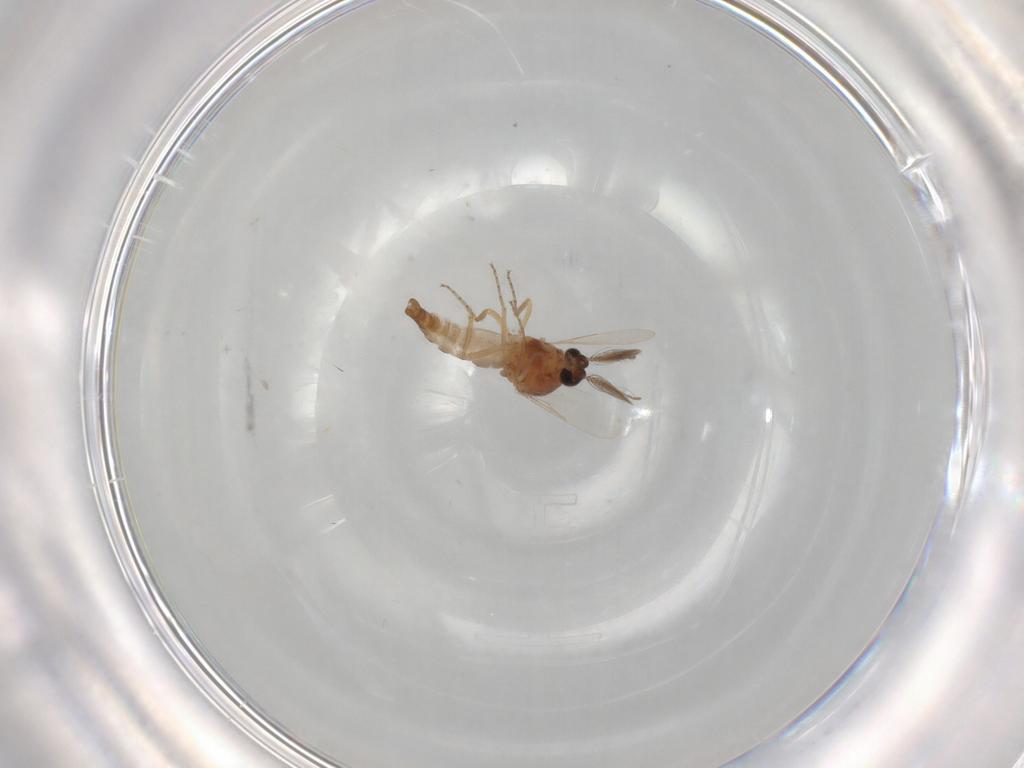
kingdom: Animalia
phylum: Arthropoda
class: Insecta
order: Diptera
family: Ceratopogonidae
